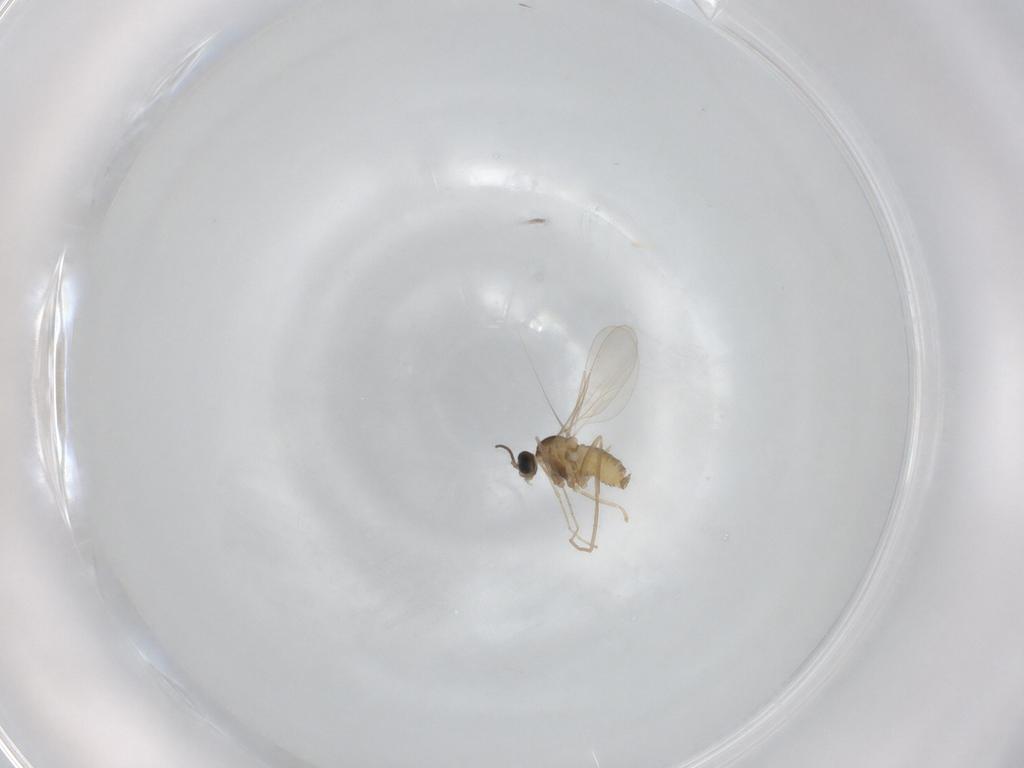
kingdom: Animalia
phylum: Arthropoda
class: Insecta
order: Diptera
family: Cecidomyiidae
